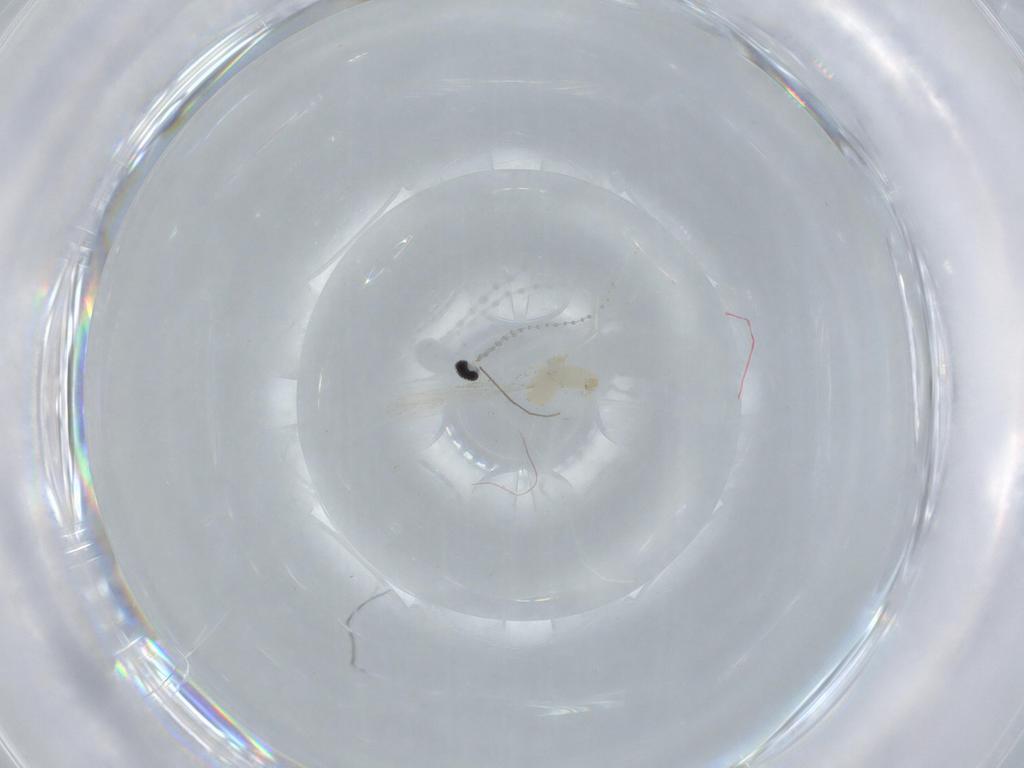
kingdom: Animalia
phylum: Arthropoda
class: Insecta
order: Diptera
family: Cecidomyiidae
